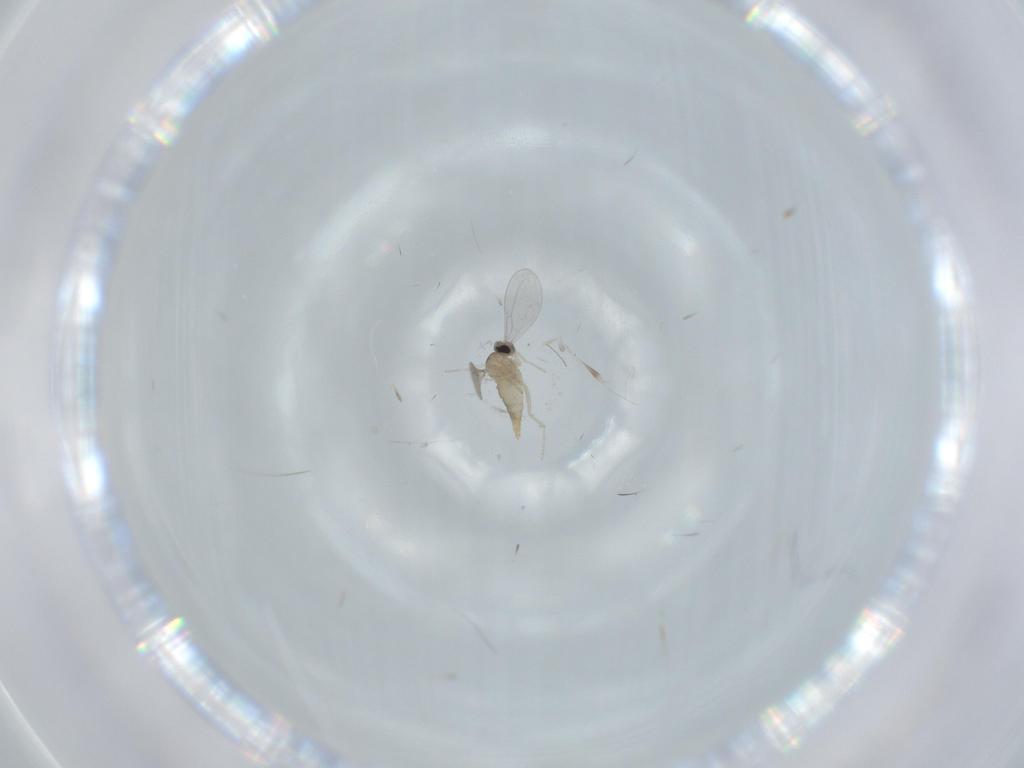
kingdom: Animalia
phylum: Arthropoda
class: Insecta
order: Diptera
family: Cecidomyiidae
